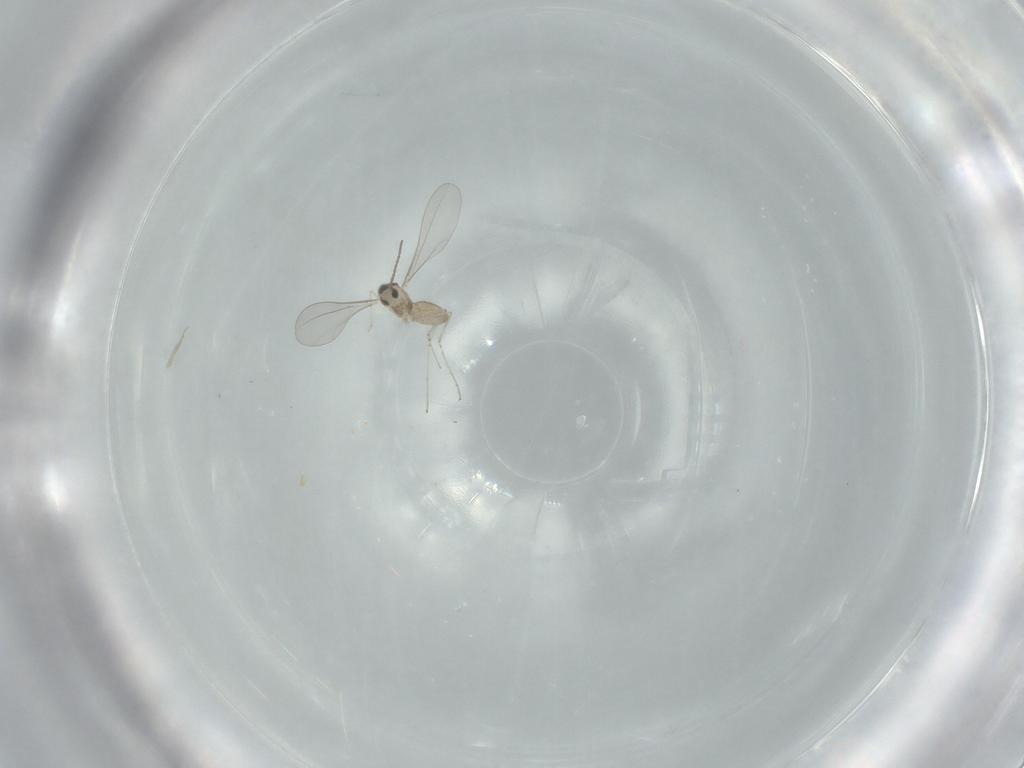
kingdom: Animalia
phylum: Arthropoda
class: Insecta
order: Diptera
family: Cecidomyiidae
